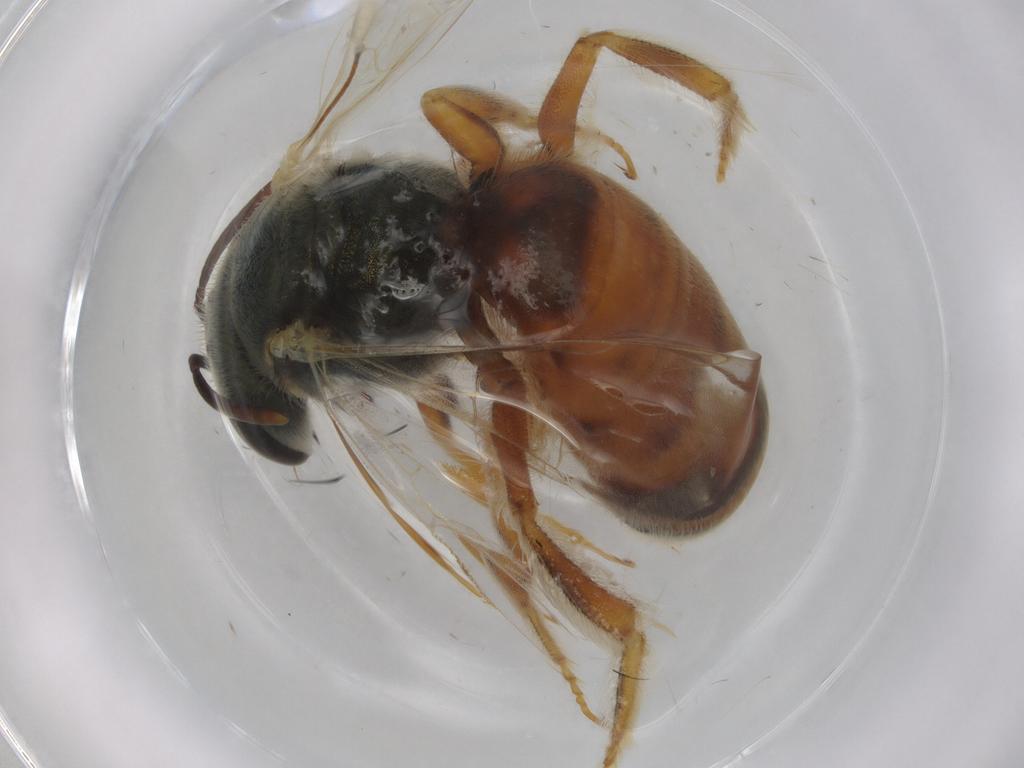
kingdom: Animalia
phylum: Arthropoda
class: Insecta
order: Hymenoptera
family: Halictidae
